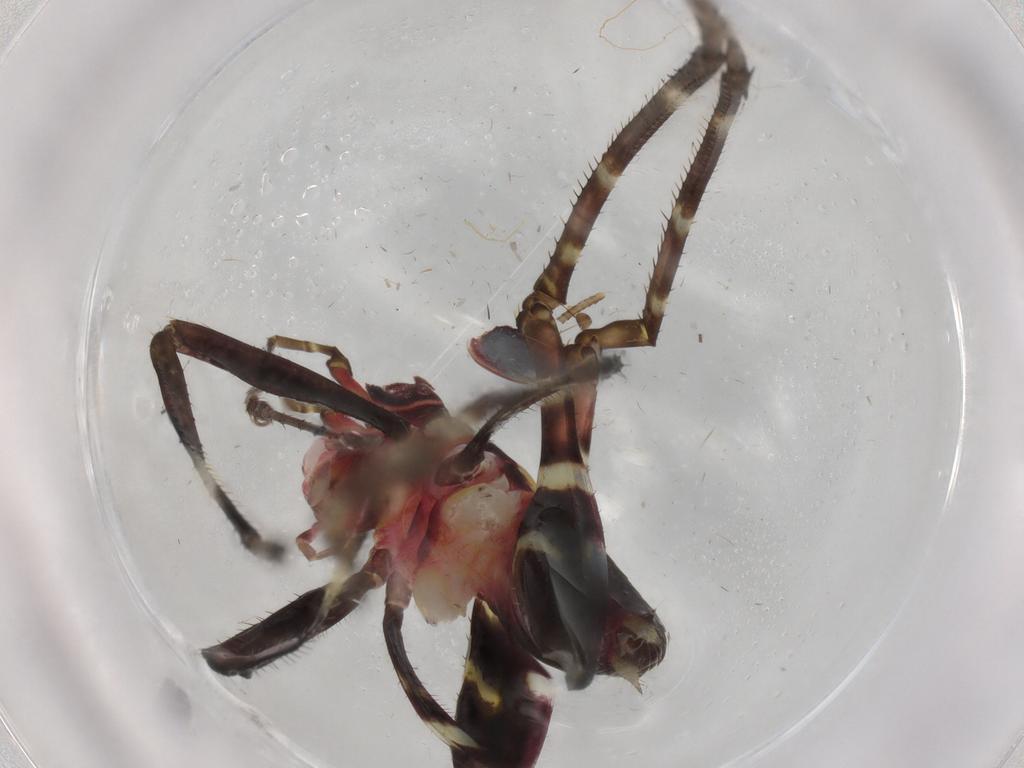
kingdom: Animalia
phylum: Arthropoda
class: Insecta
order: Orthoptera
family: Tettigoniidae
